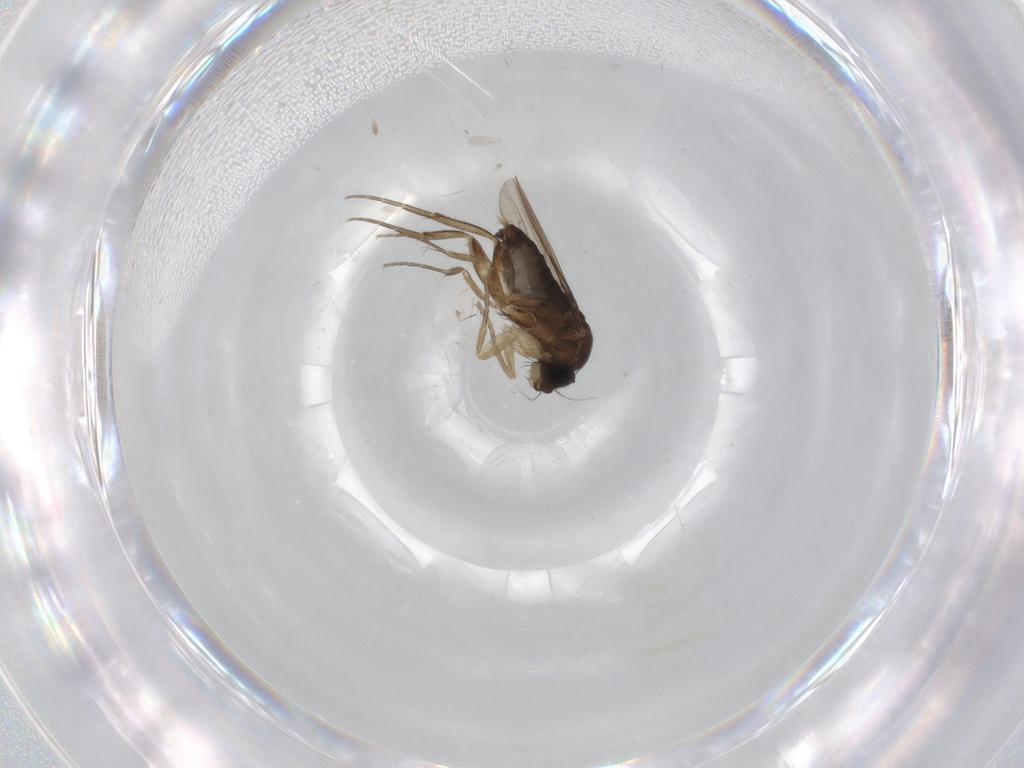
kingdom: Animalia
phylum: Arthropoda
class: Insecta
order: Diptera
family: Phoridae
